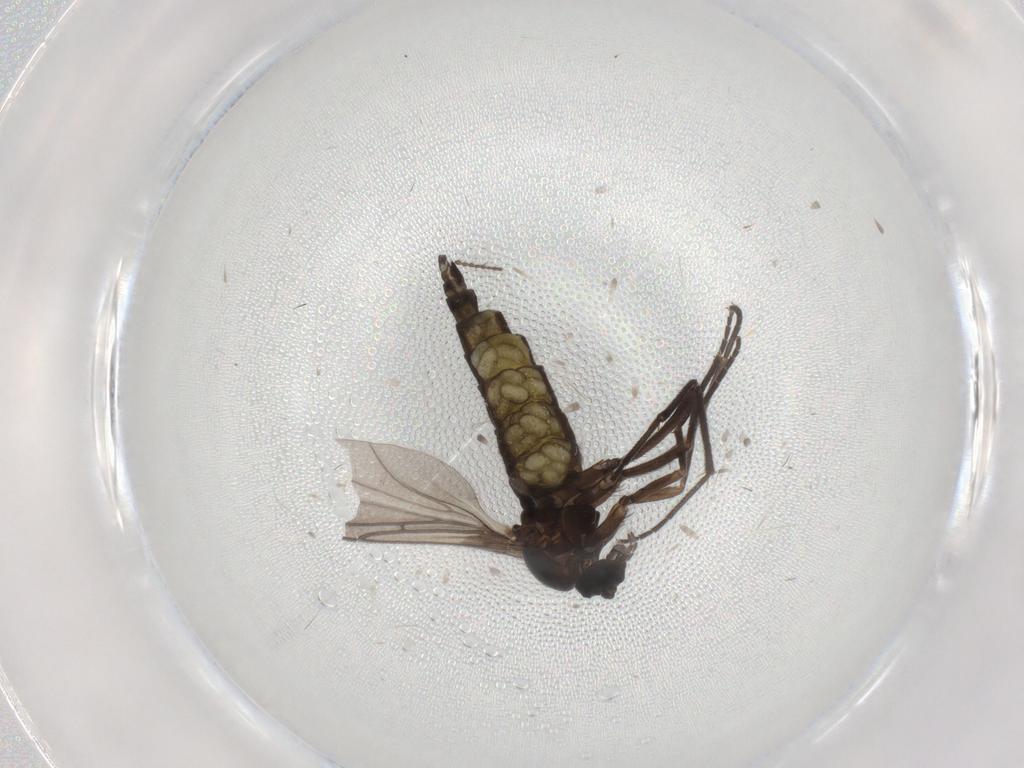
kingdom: Animalia
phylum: Arthropoda
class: Insecta
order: Diptera
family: Sciaridae
